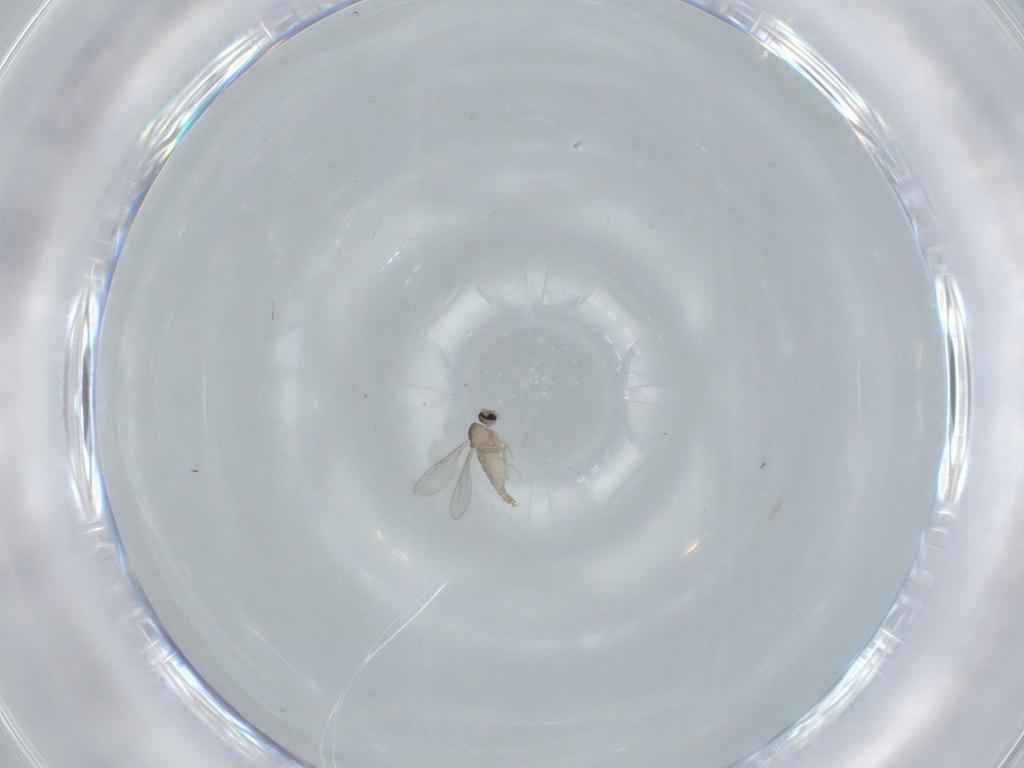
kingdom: Animalia
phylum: Arthropoda
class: Insecta
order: Diptera
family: Cecidomyiidae
